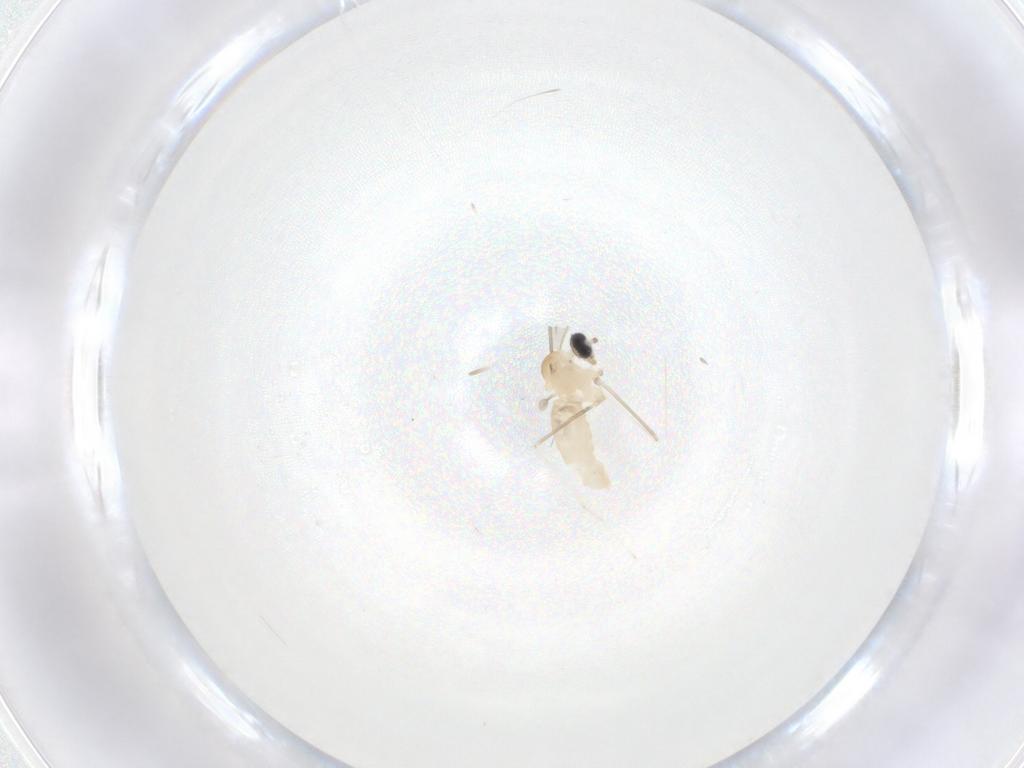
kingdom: Animalia
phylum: Arthropoda
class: Insecta
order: Diptera
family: Cecidomyiidae
